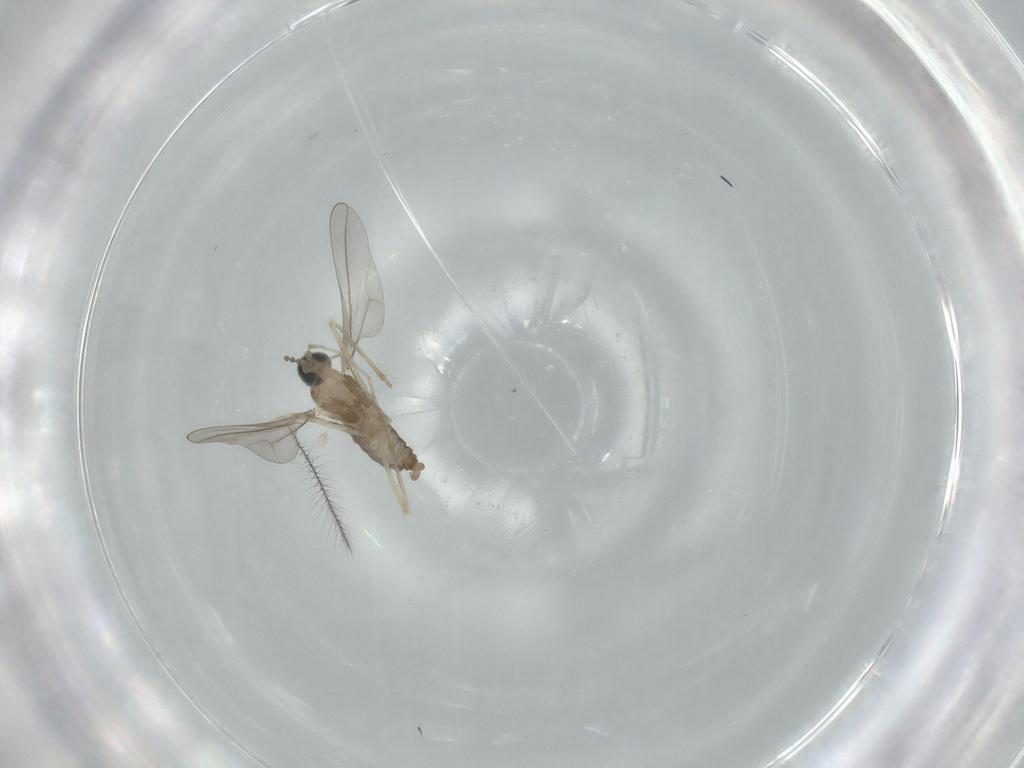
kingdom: Animalia
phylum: Arthropoda
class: Insecta
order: Diptera
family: Cecidomyiidae
